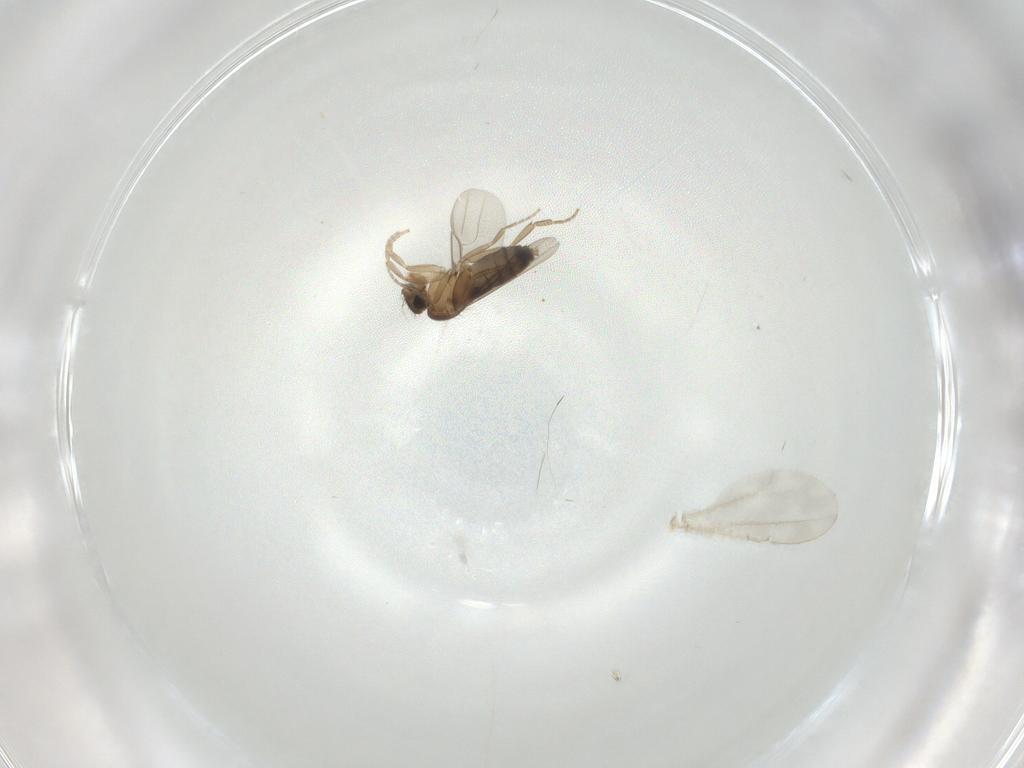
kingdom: Animalia
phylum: Arthropoda
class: Insecta
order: Diptera
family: Phoridae
